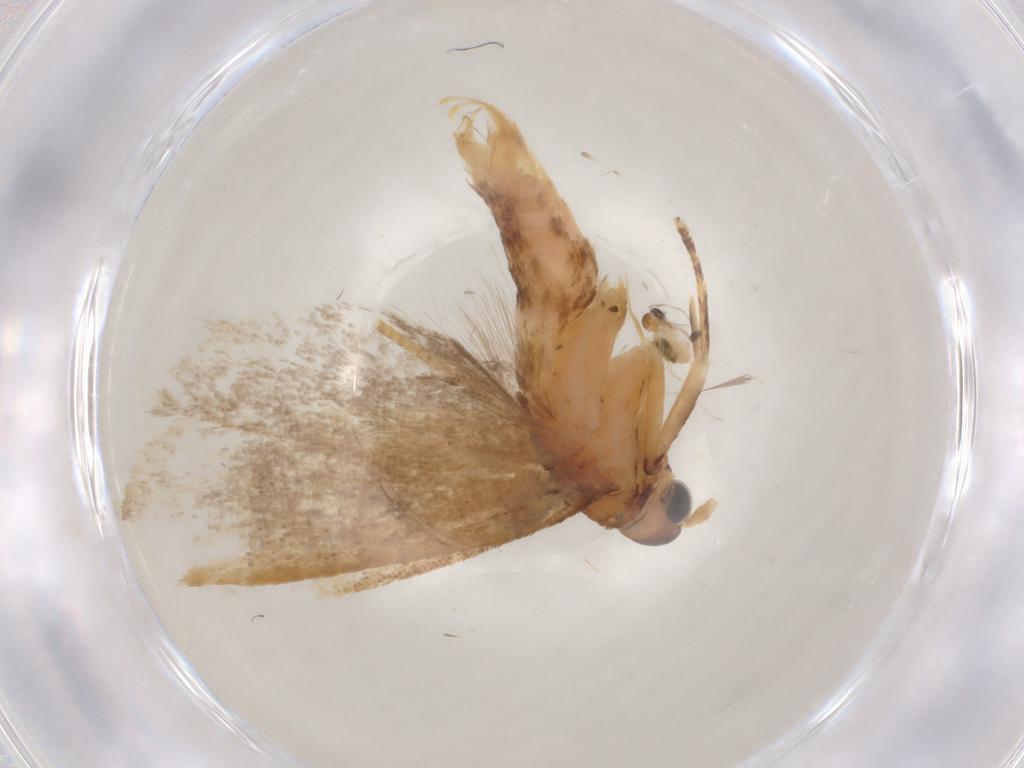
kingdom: Animalia
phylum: Arthropoda
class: Insecta
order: Lepidoptera
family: Lecithoceridae
